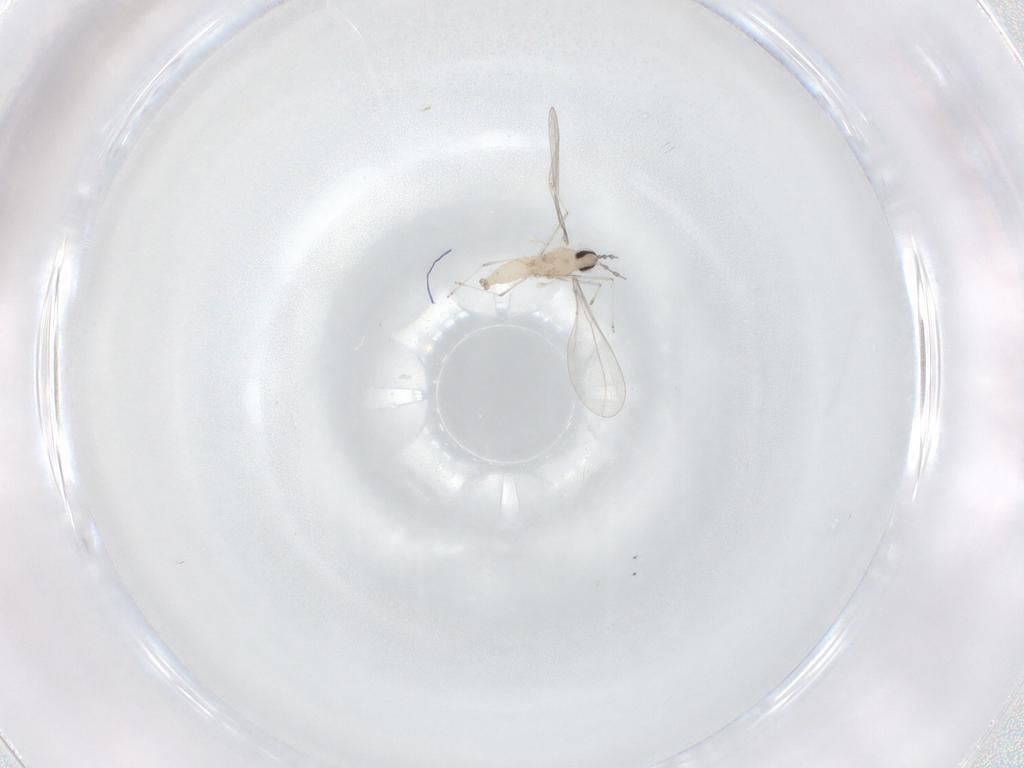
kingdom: Animalia
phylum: Arthropoda
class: Insecta
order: Diptera
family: Cecidomyiidae
